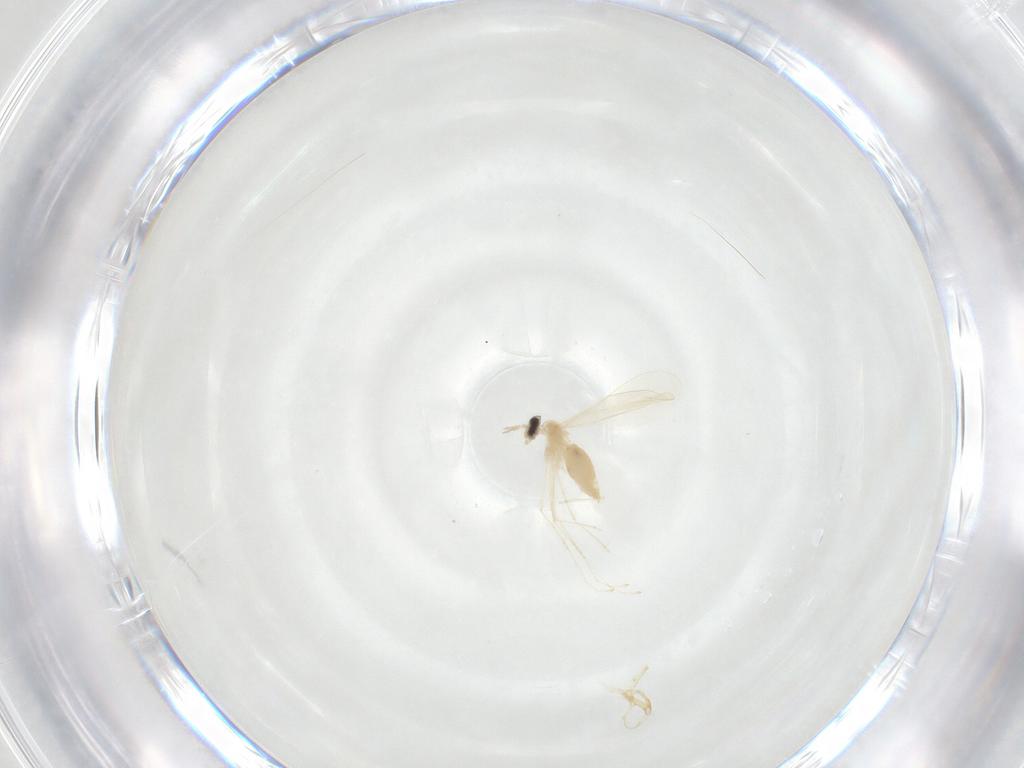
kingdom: Animalia
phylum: Arthropoda
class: Insecta
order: Diptera
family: Cecidomyiidae
